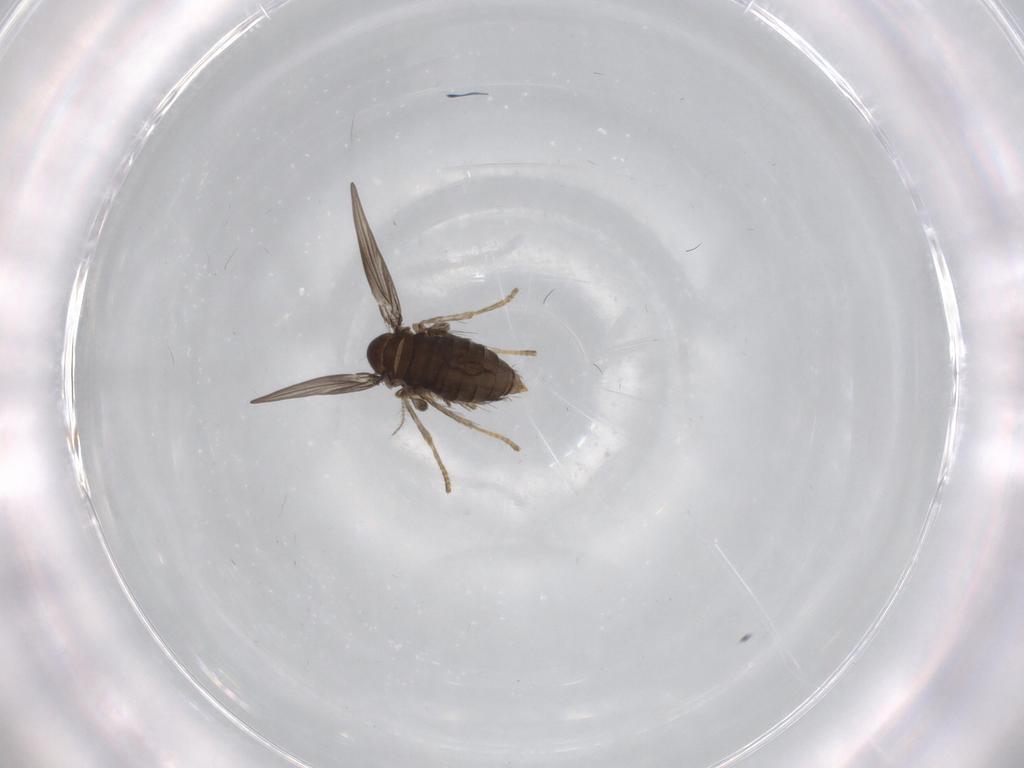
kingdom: Animalia
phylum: Arthropoda
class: Insecta
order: Diptera
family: Psychodidae
